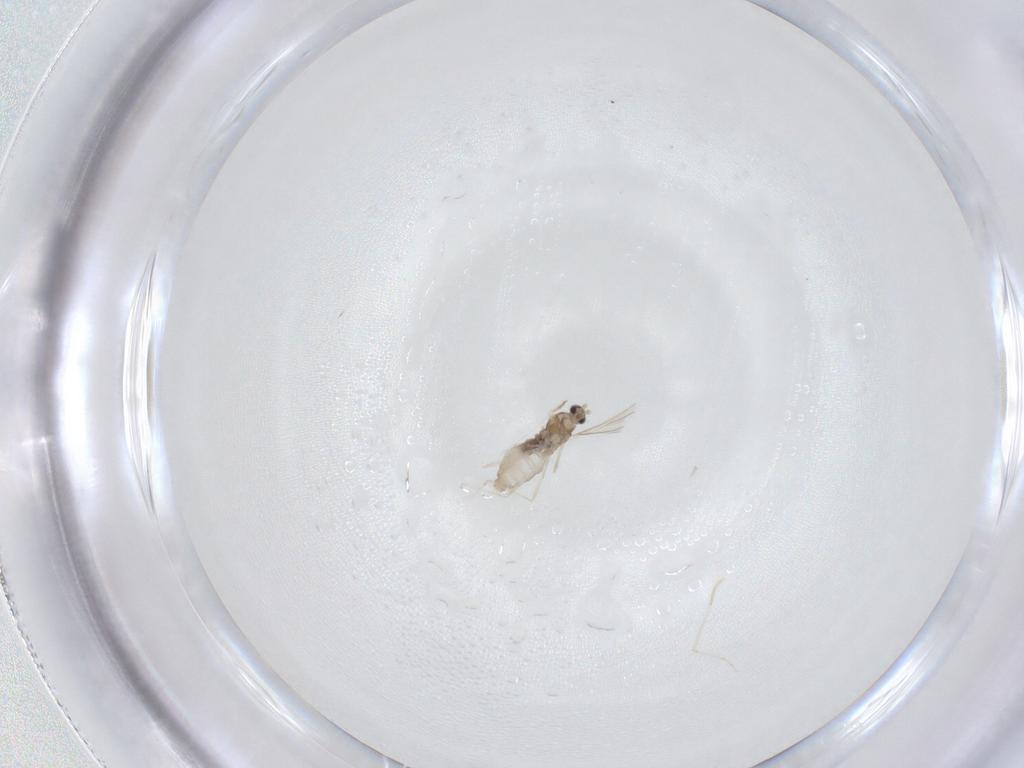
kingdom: Animalia
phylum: Arthropoda
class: Insecta
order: Diptera
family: Cecidomyiidae
